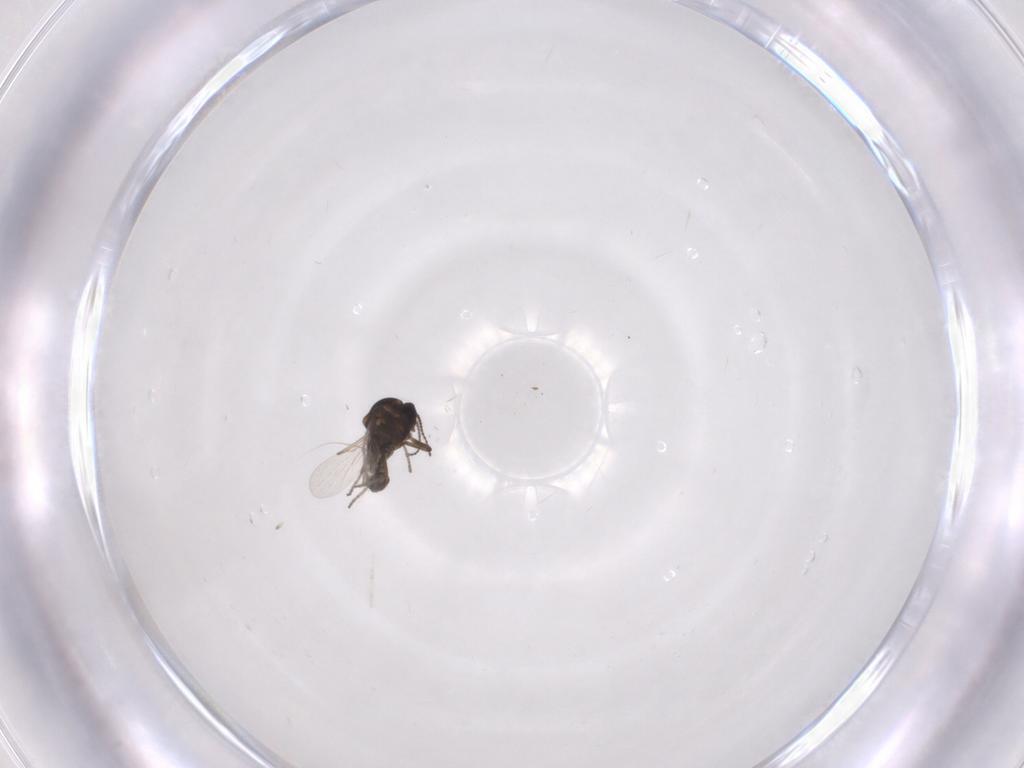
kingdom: Animalia
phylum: Arthropoda
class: Insecta
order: Diptera
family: Ceratopogonidae
